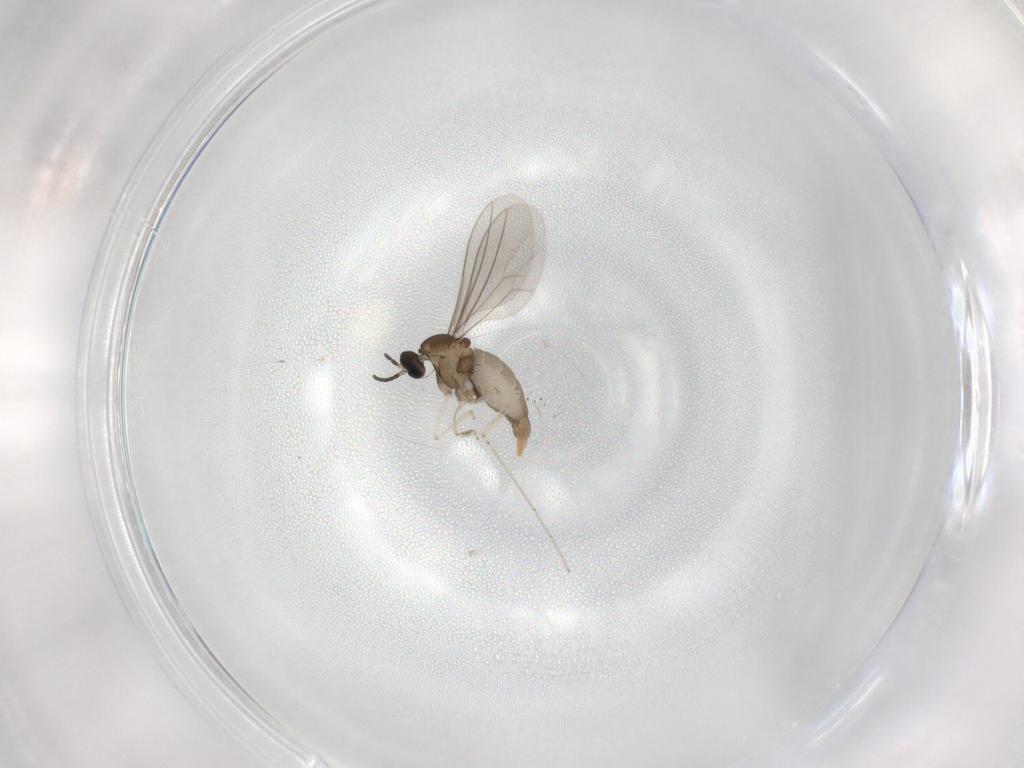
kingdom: Animalia
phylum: Arthropoda
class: Insecta
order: Diptera
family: Cecidomyiidae
